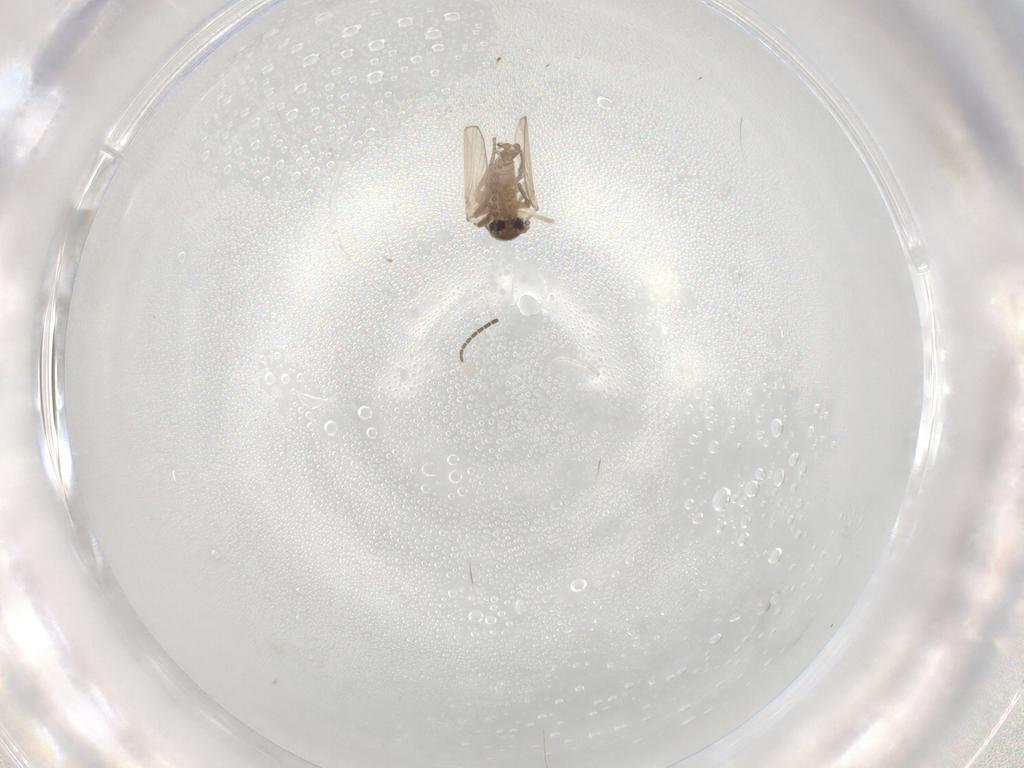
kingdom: Animalia
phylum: Arthropoda
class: Insecta
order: Diptera
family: Psychodidae
